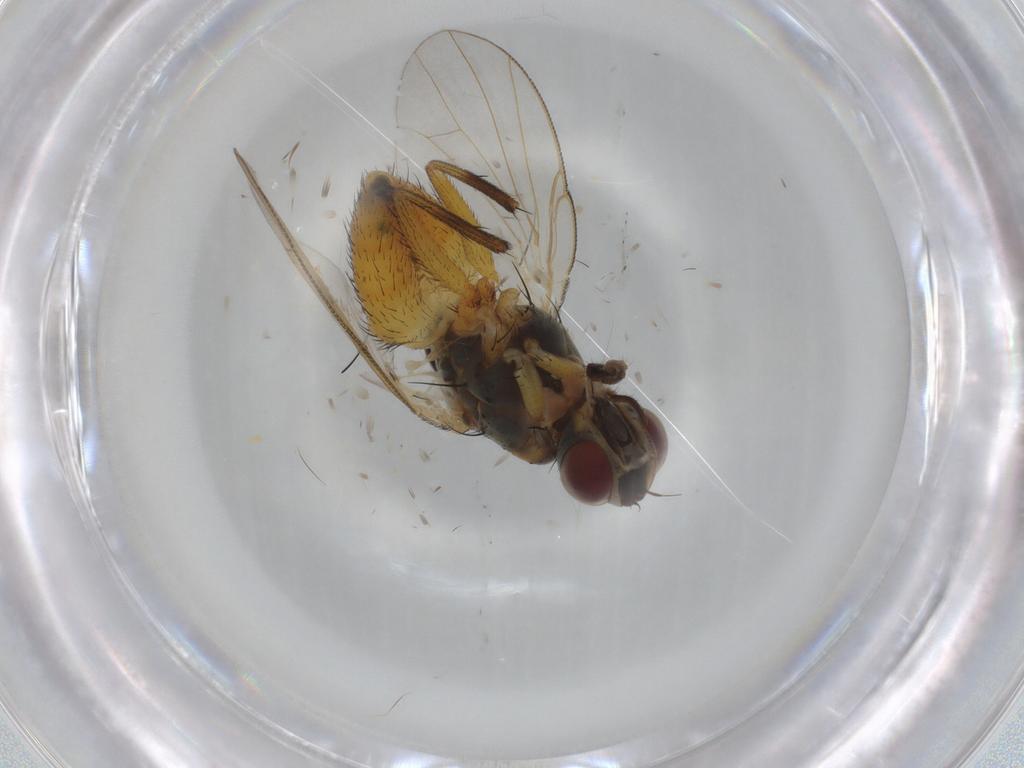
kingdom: Animalia
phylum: Arthropoda
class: Insecta
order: Diptera
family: Muscidae
